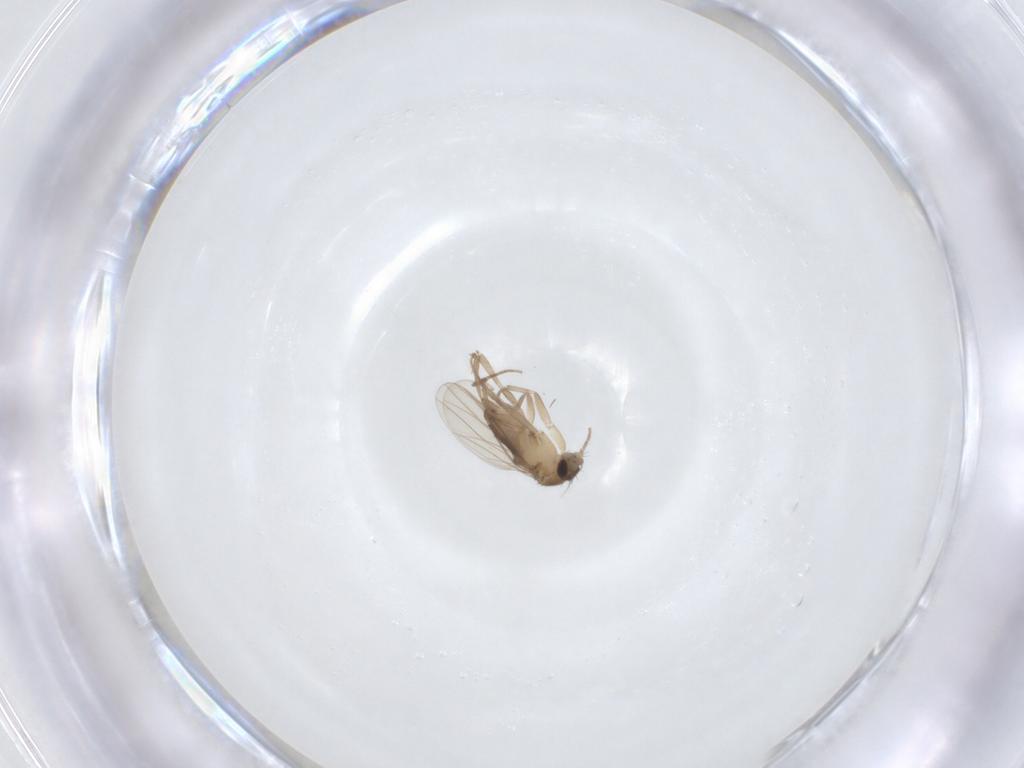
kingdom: Animalia
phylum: Arthropoda
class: Insecta
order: Diptera
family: Phoridae
